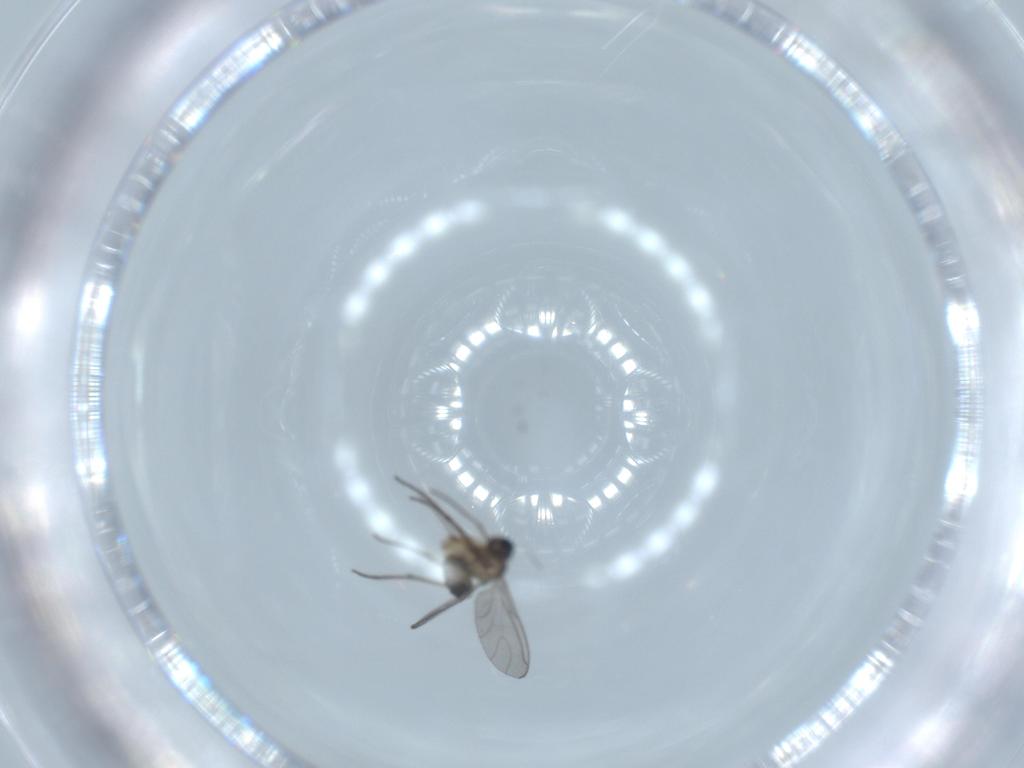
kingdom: Animalia
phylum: Arthropoda
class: Insecta
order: Diptera
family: Sciaridae
